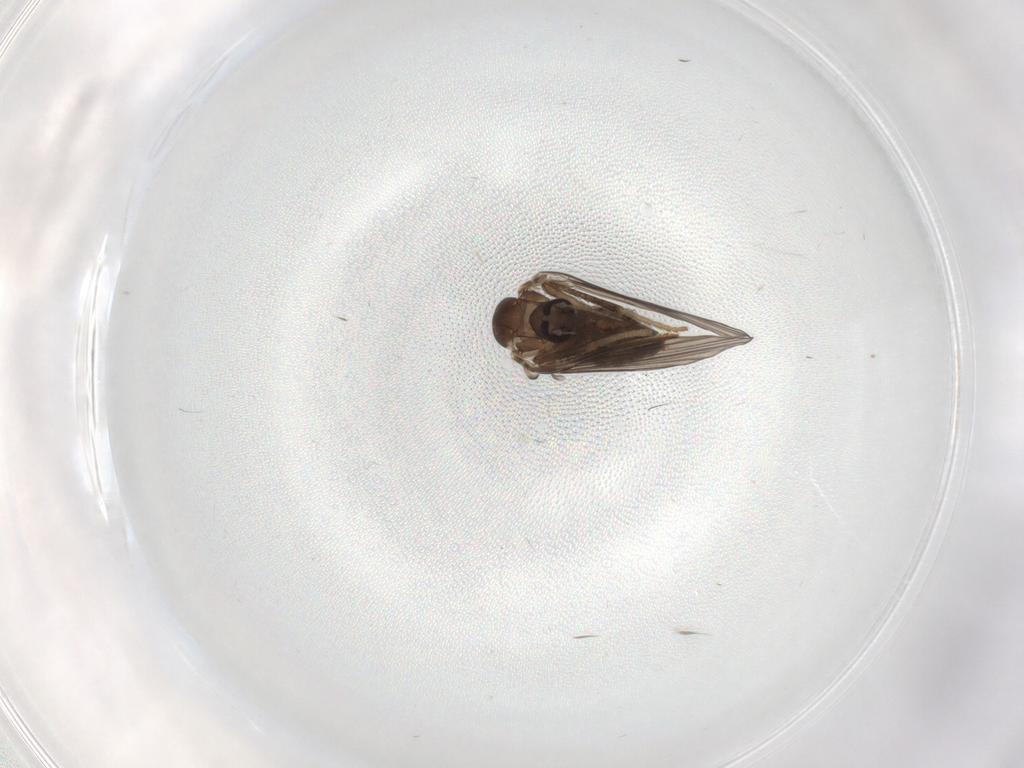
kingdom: Animalia
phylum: Arthropoda
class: Insecta
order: Diptera
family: Psychodidae
